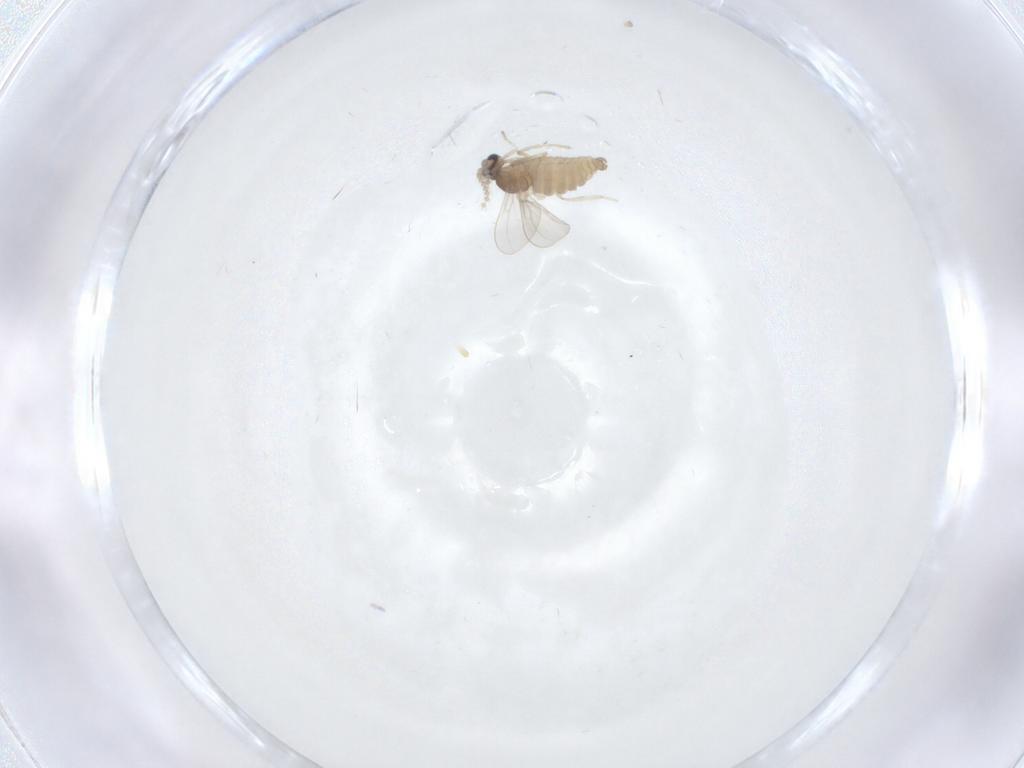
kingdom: Animalia
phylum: Arthropoda
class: Insecta
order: Diptera
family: Cecidomyiidae
